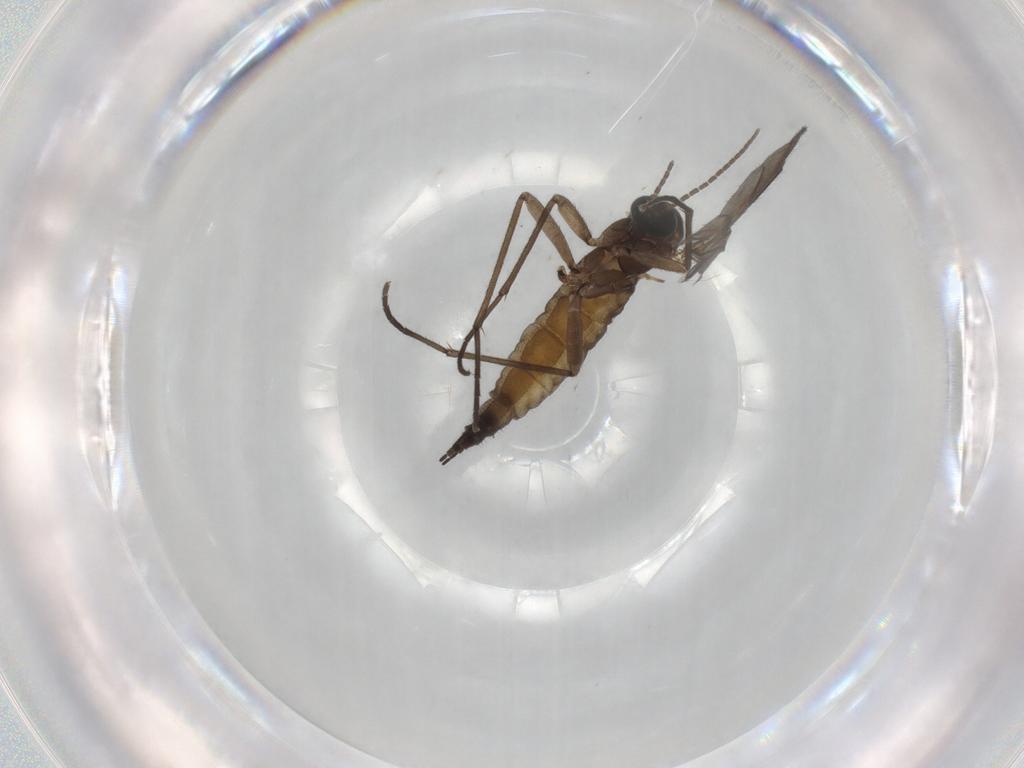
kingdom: Animalia
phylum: Arthropoda
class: Insecta
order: Diptera
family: Sciaridae
